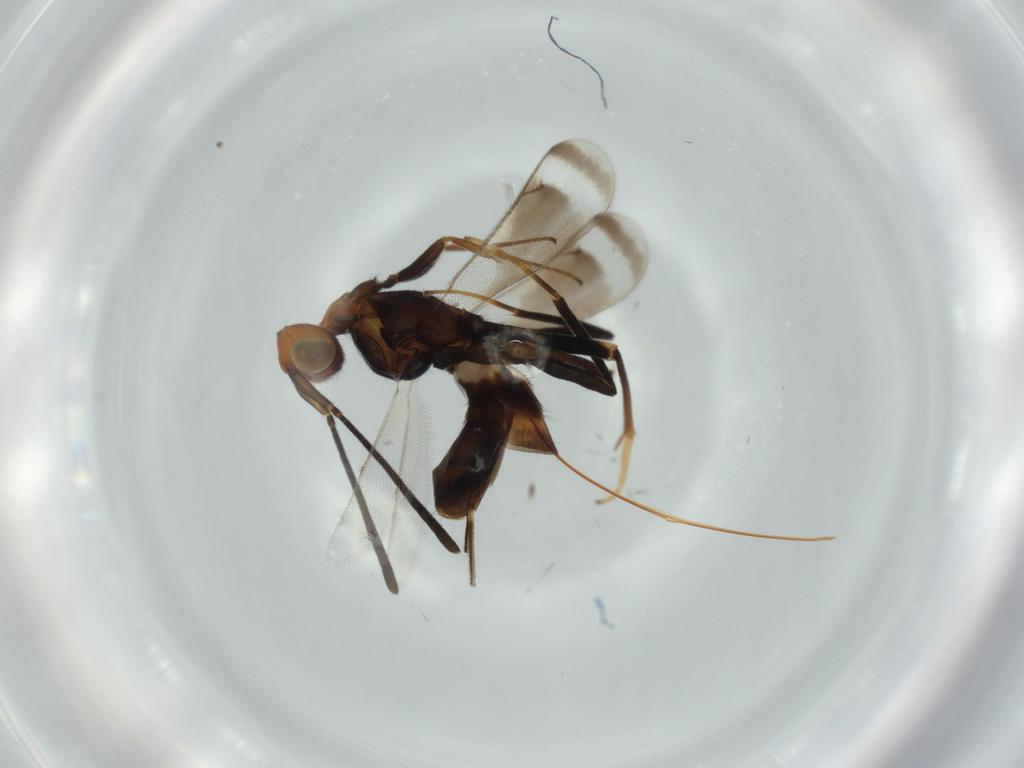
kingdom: Animalia
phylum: Arthropoda
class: Insecta
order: Hymenoptera
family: Eupelmidae
